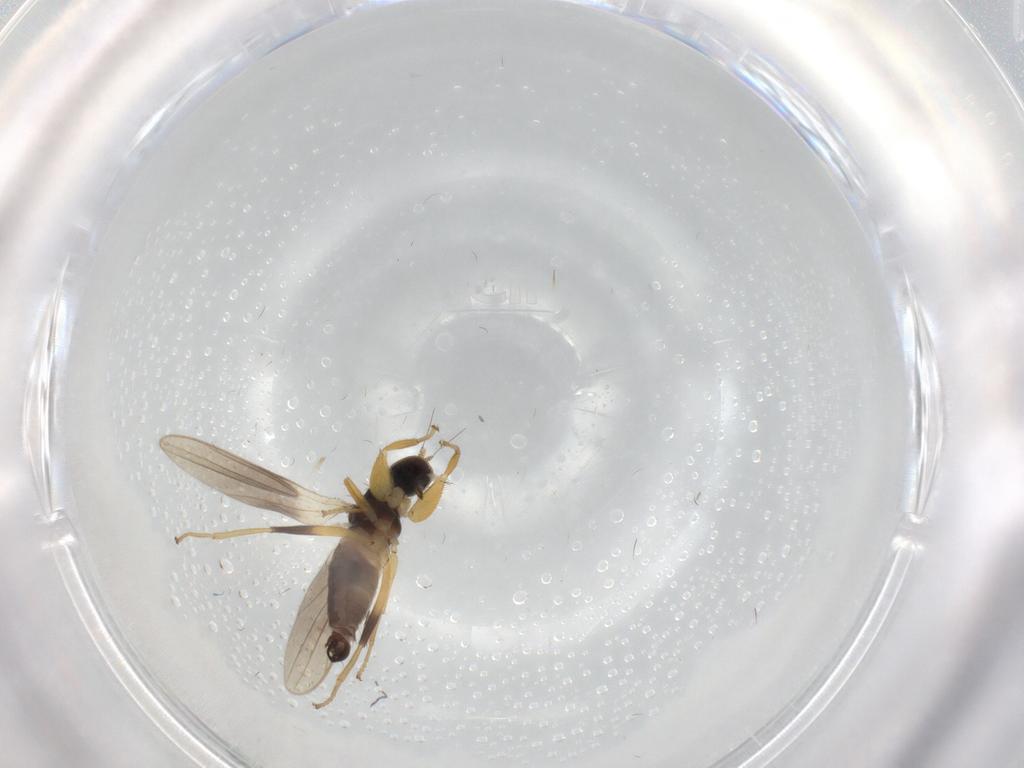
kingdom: Animalia
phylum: Arthropoda
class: Insecta
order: Diptera
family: Hybotidae
